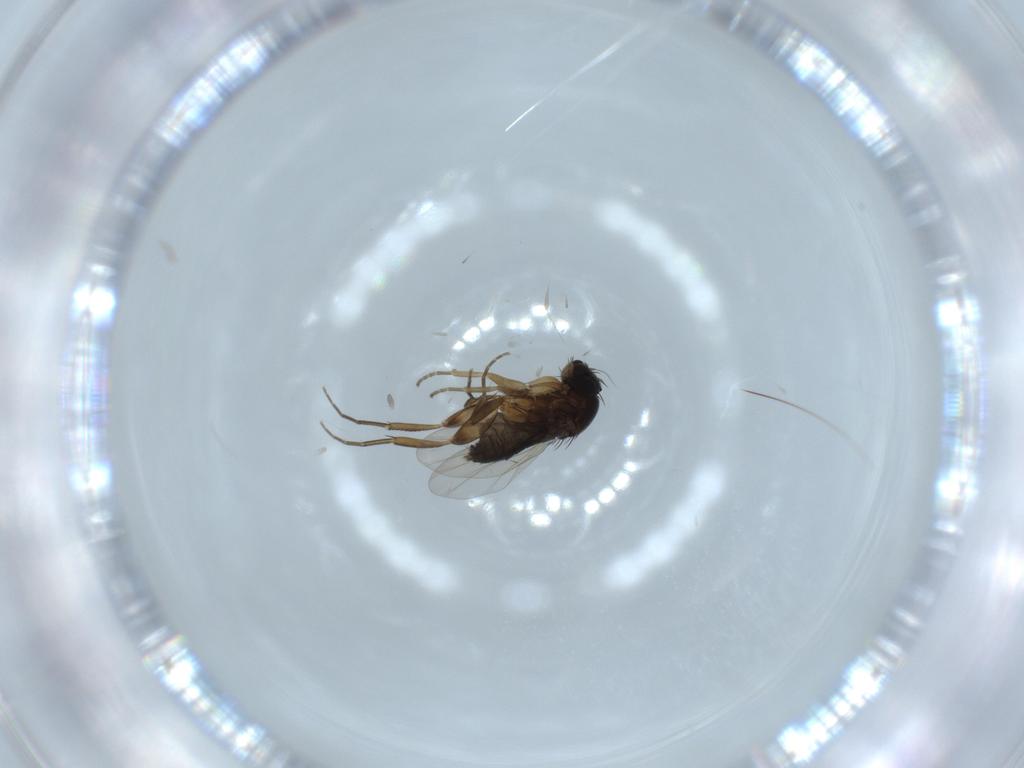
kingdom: Animalia
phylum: Arthropoda
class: Insecta
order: Diptera
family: Phoridae
